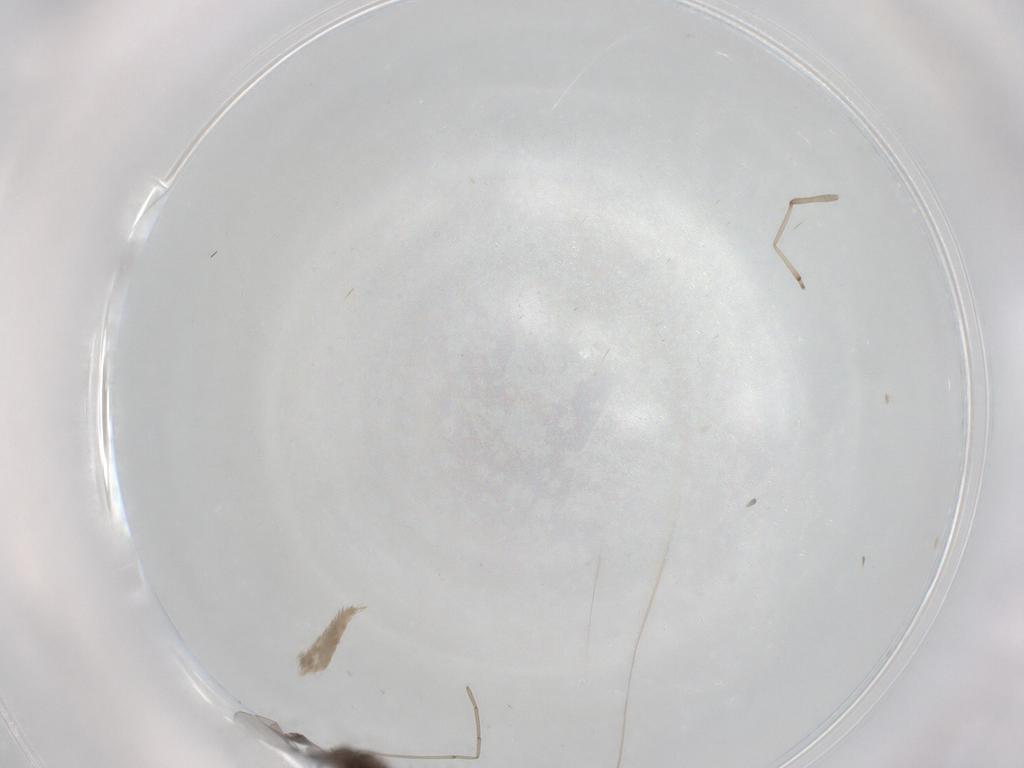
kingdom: Animalia
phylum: Arthropoda
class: Insecta
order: Diptera
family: Cecidomyiidae
